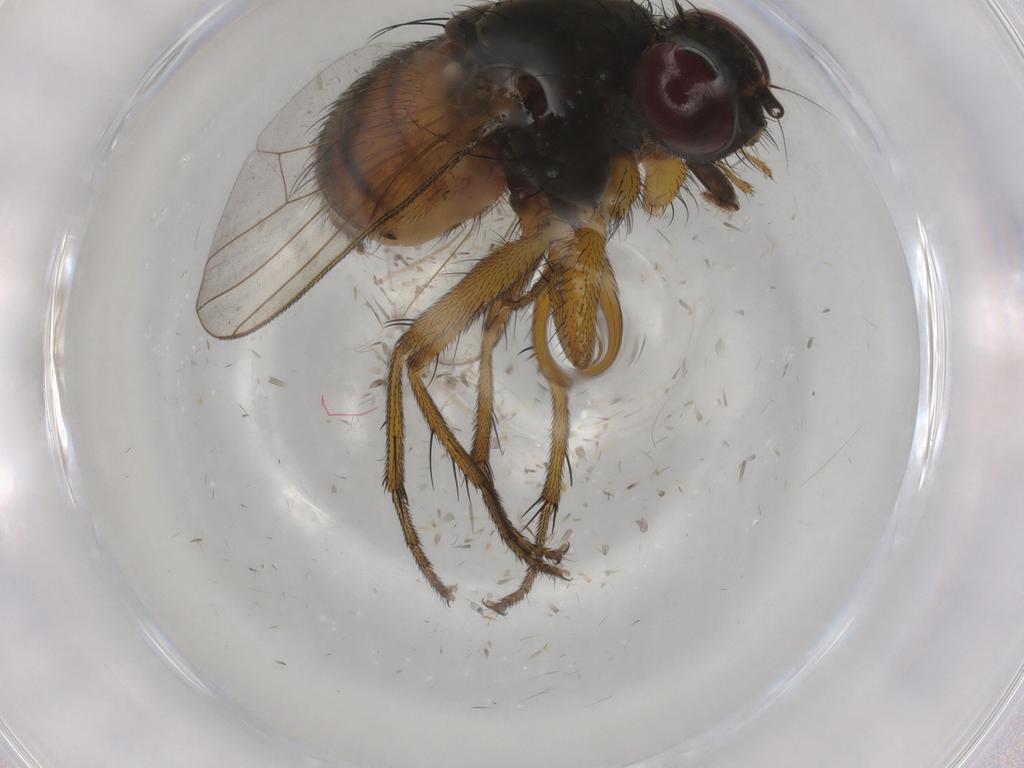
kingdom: Animalia
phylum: Arthropoda
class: Insecta
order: Diptera
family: Muscidae
